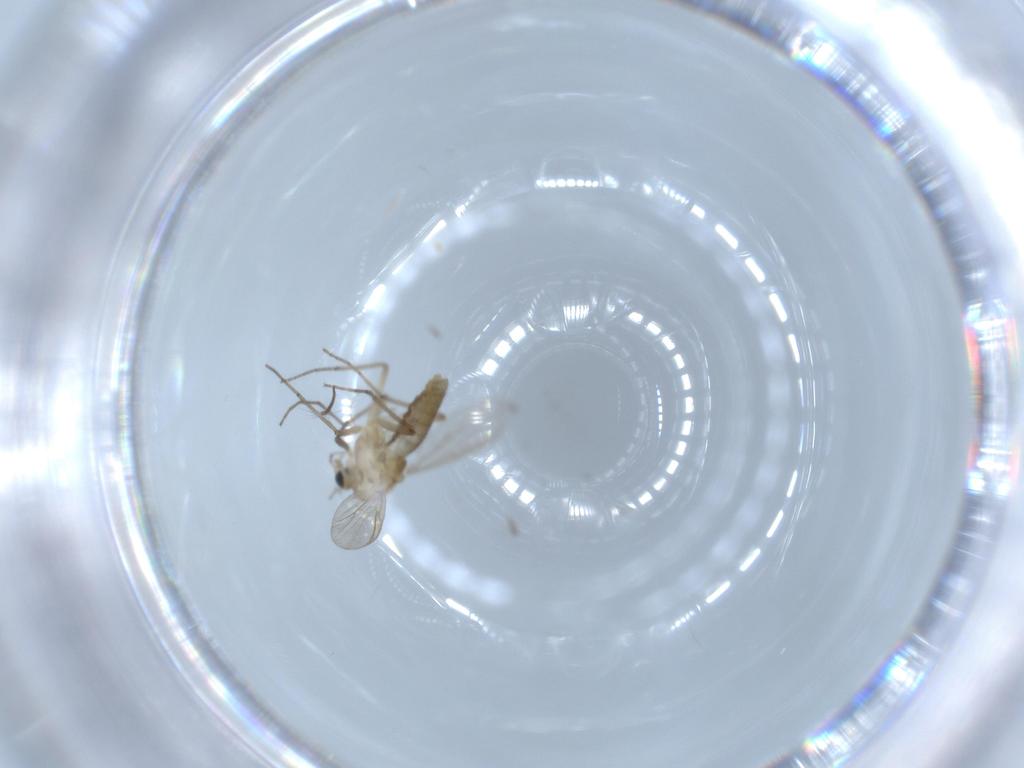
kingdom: Animalia
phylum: Arthropoda
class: Insecta
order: Diptera
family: Chironomidae
